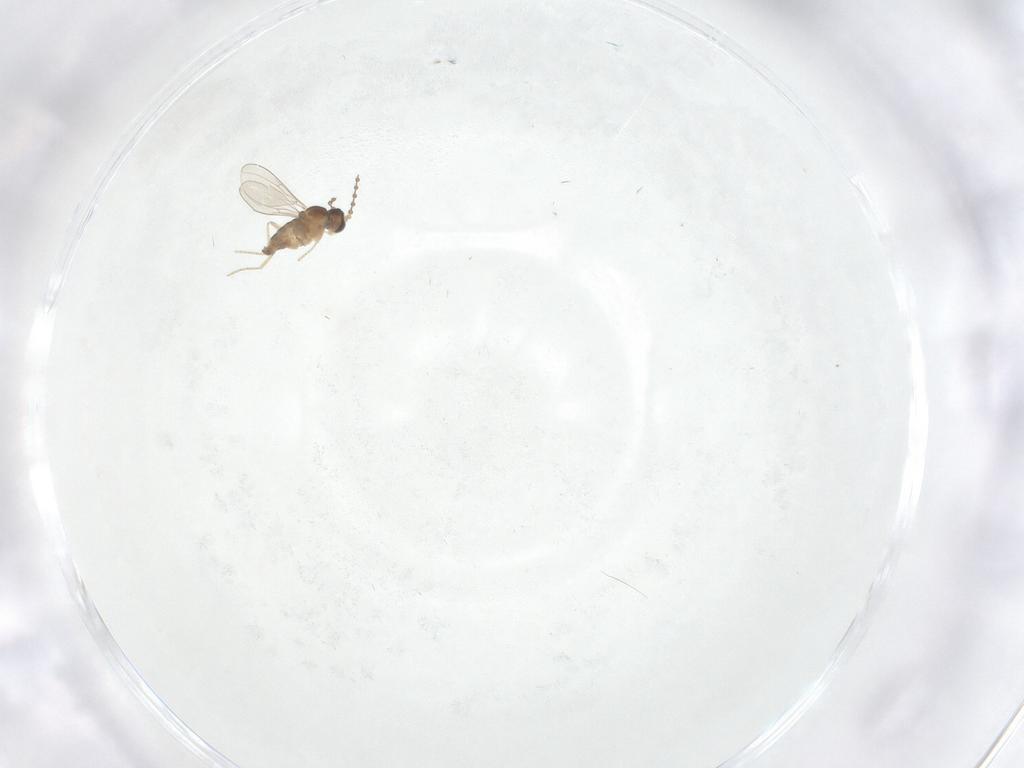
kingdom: Animalia
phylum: Arthropoda
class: Insecta
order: Diptera
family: Cecidomyiidae
